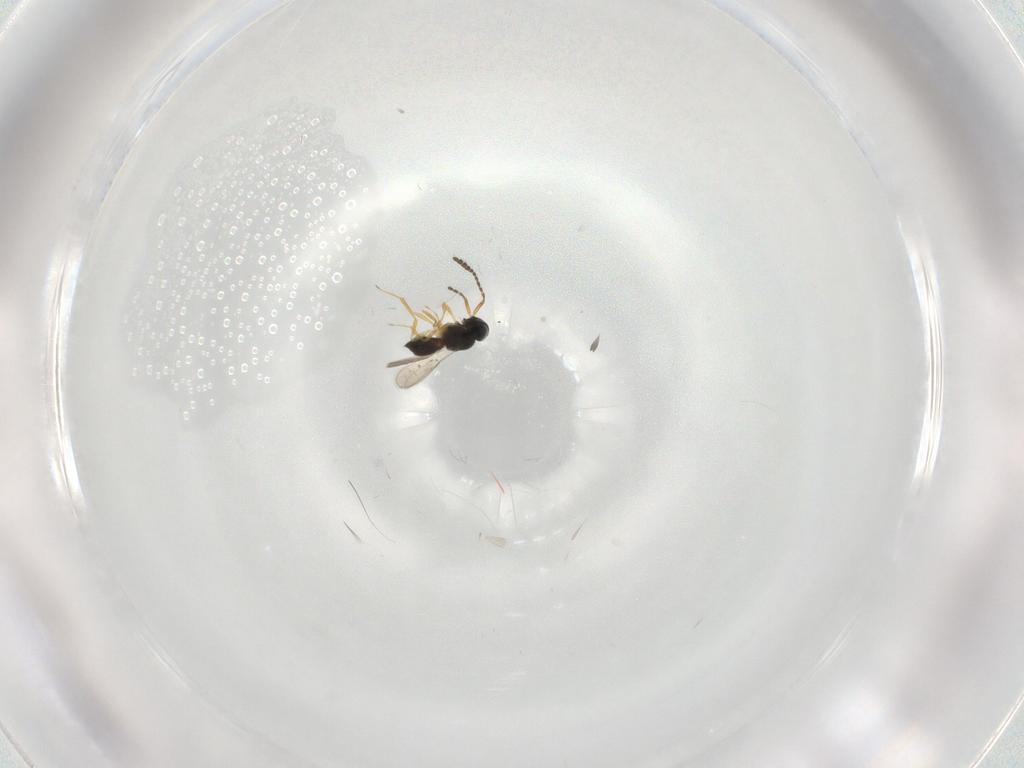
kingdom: Animalia
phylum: Arthropoda
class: Insecta
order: Hymenoptera
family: Scelionidae
